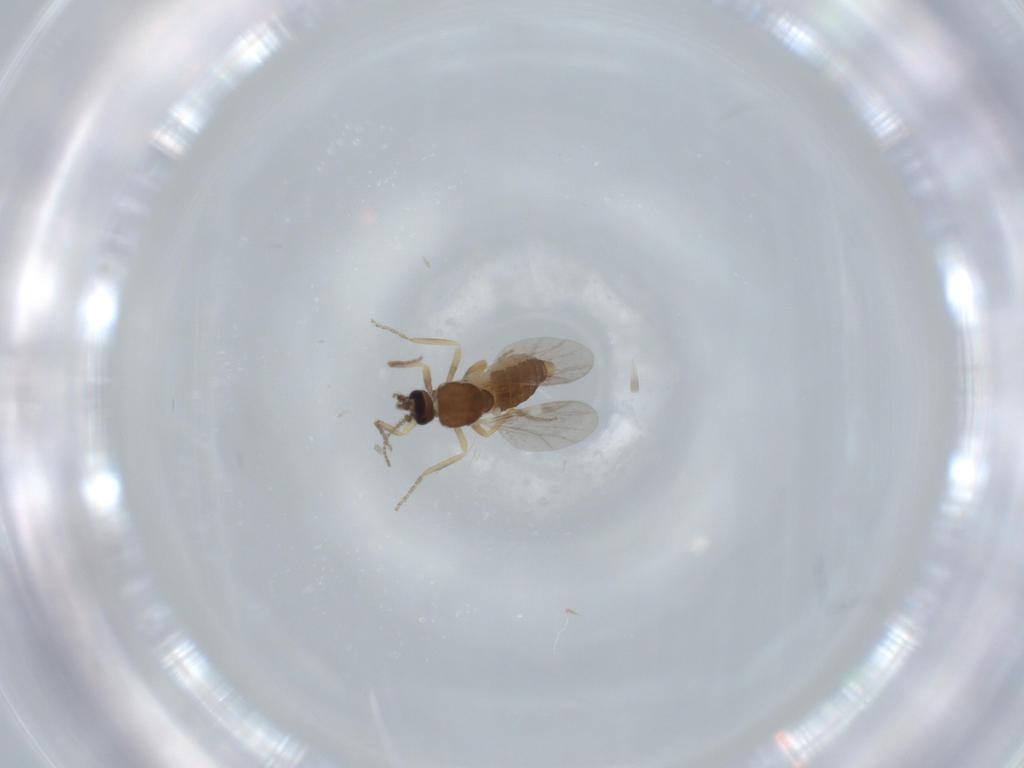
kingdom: Animalia
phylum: Arthropoda
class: Insecta
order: Diptera
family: Ceratopogonidae
